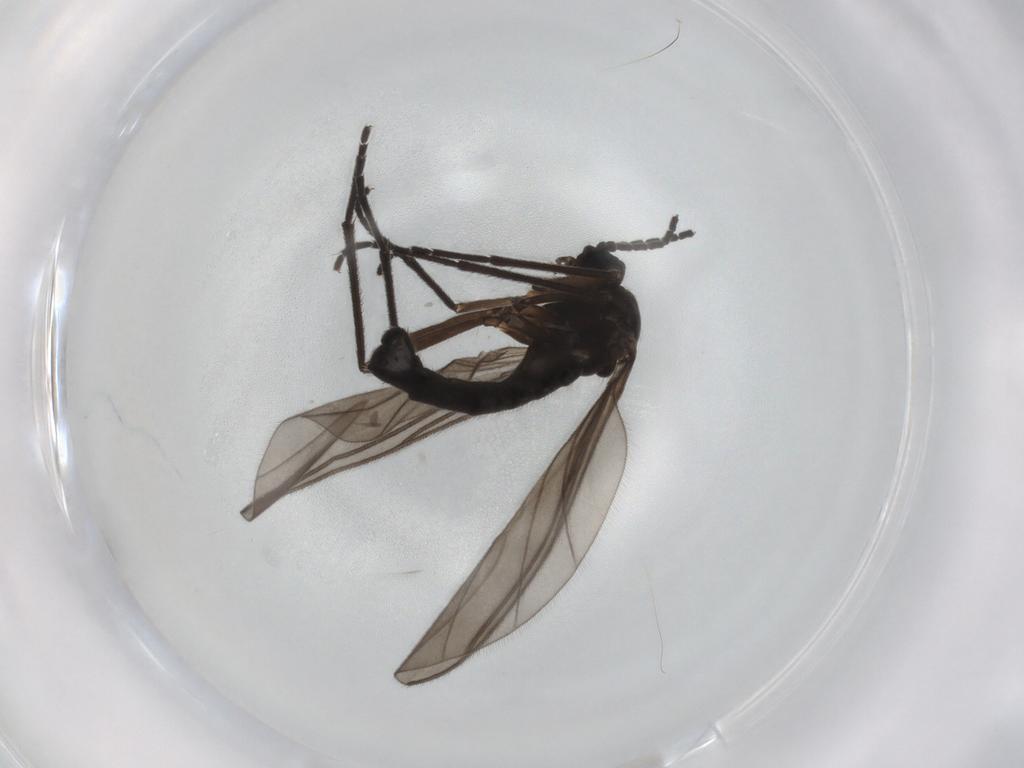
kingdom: Animalia
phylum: Arthropoda
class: Insecta
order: Diptera
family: Sciaridae
